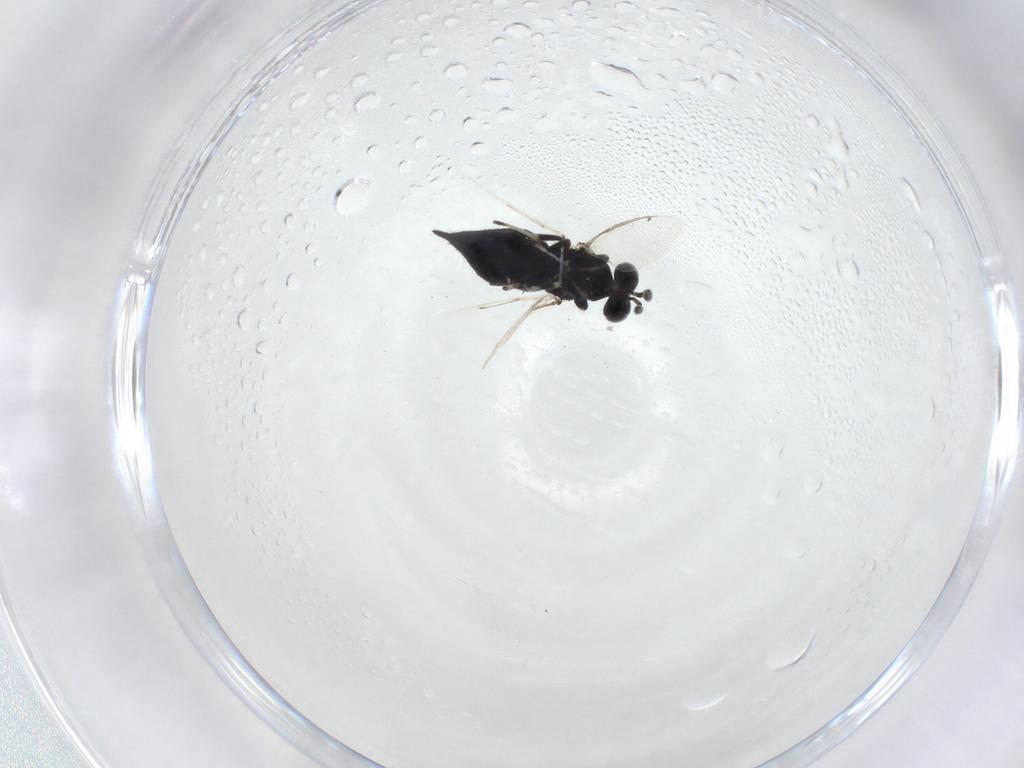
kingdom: Animalia
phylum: Arthropoda
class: Insecta
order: Hymenoptera
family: Eulophidae
